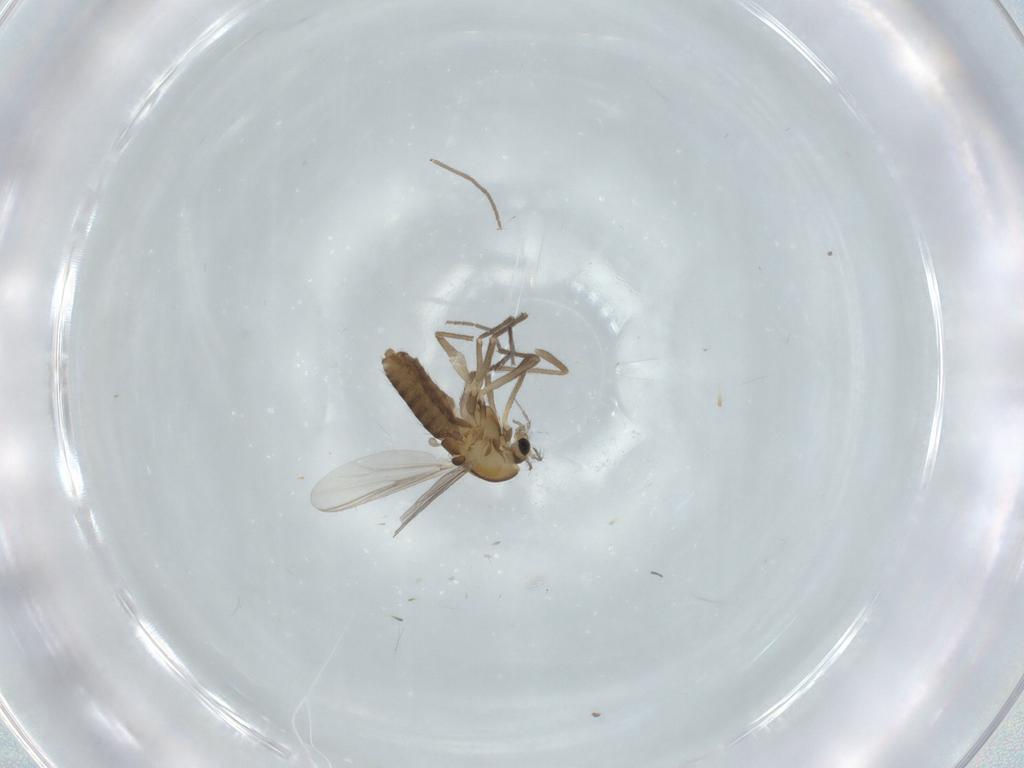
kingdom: Animalia
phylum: Arthropoda
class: Insecta
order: Diptera
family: Chironomidae
